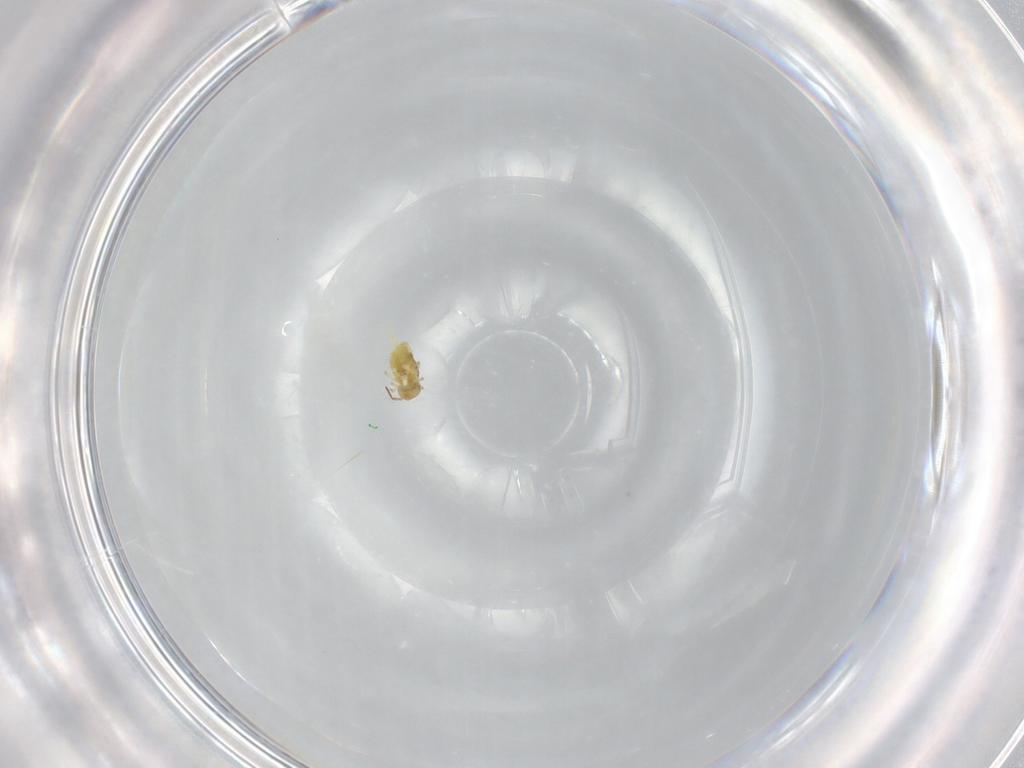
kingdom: Animalia
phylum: Arthropoda
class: Collembola
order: Symphypleona
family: Bourletiellidae
